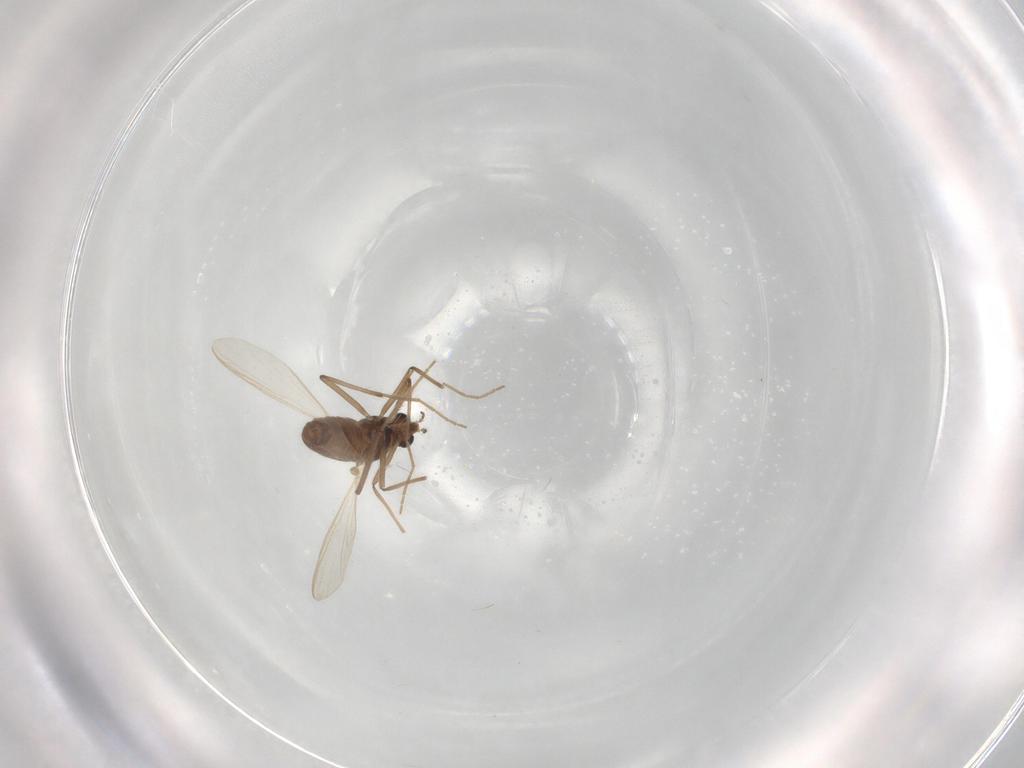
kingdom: Animalia
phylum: Arthropoda
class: Insecta
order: Diptera
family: Chironomidae
